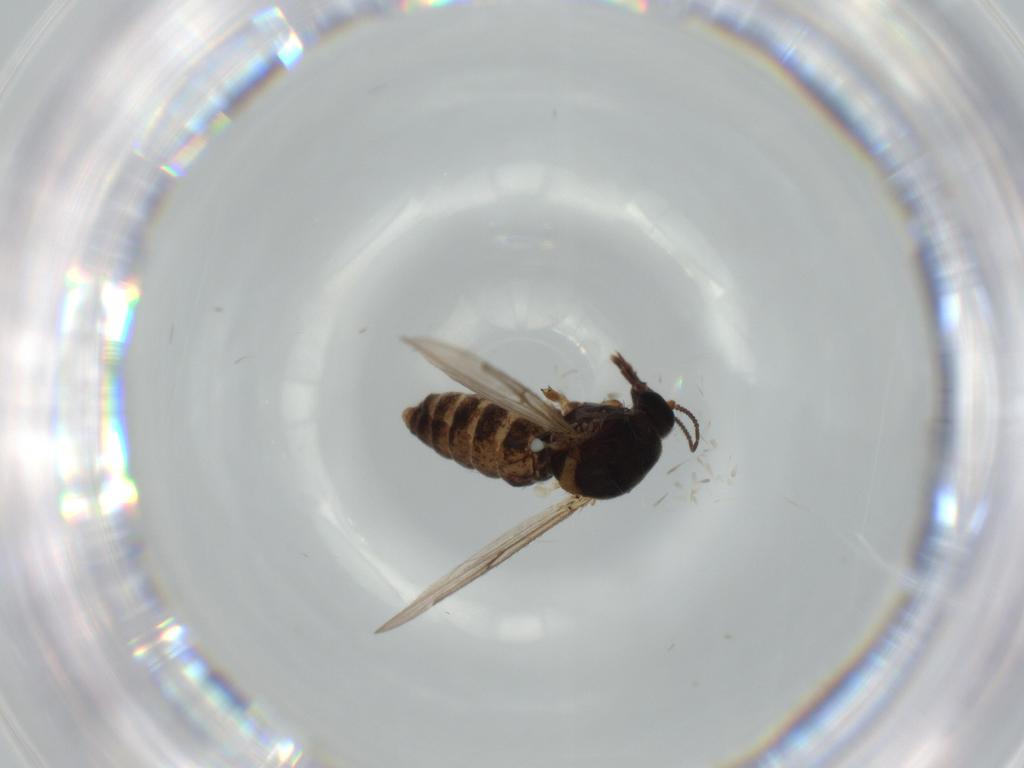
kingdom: Animalia
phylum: Arthropoda
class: Insecta
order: Diptera
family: Ceratopogonidae
